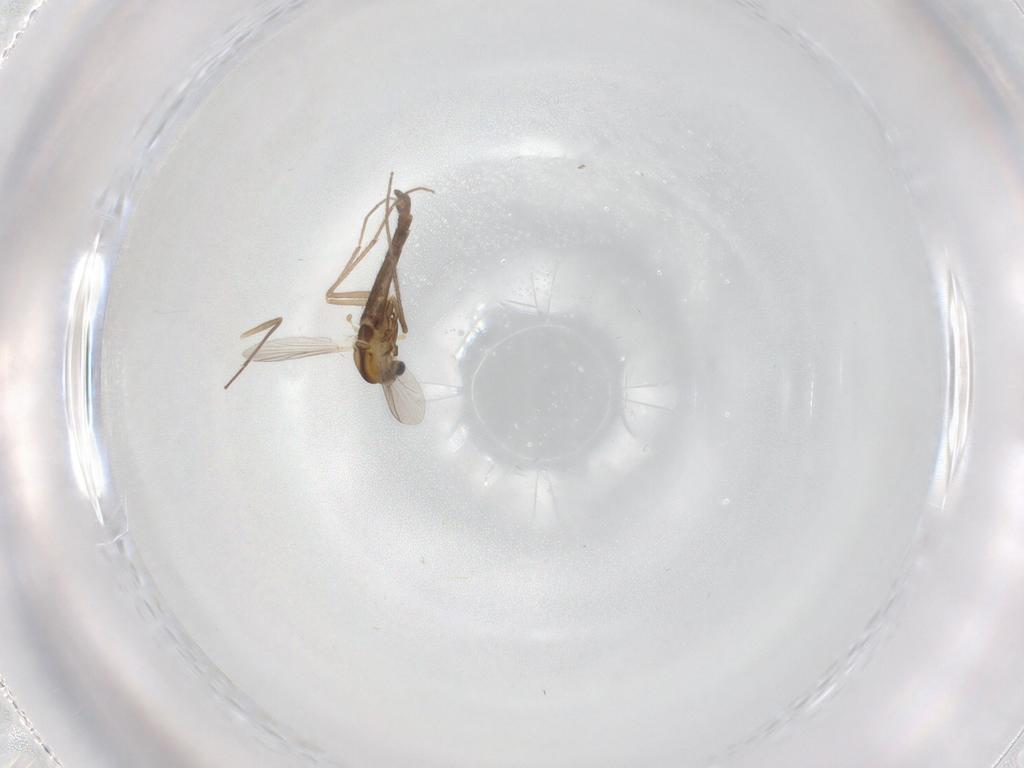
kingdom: Animalia
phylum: Arthropoda
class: Insecta
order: Diptera
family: Chironomidae
